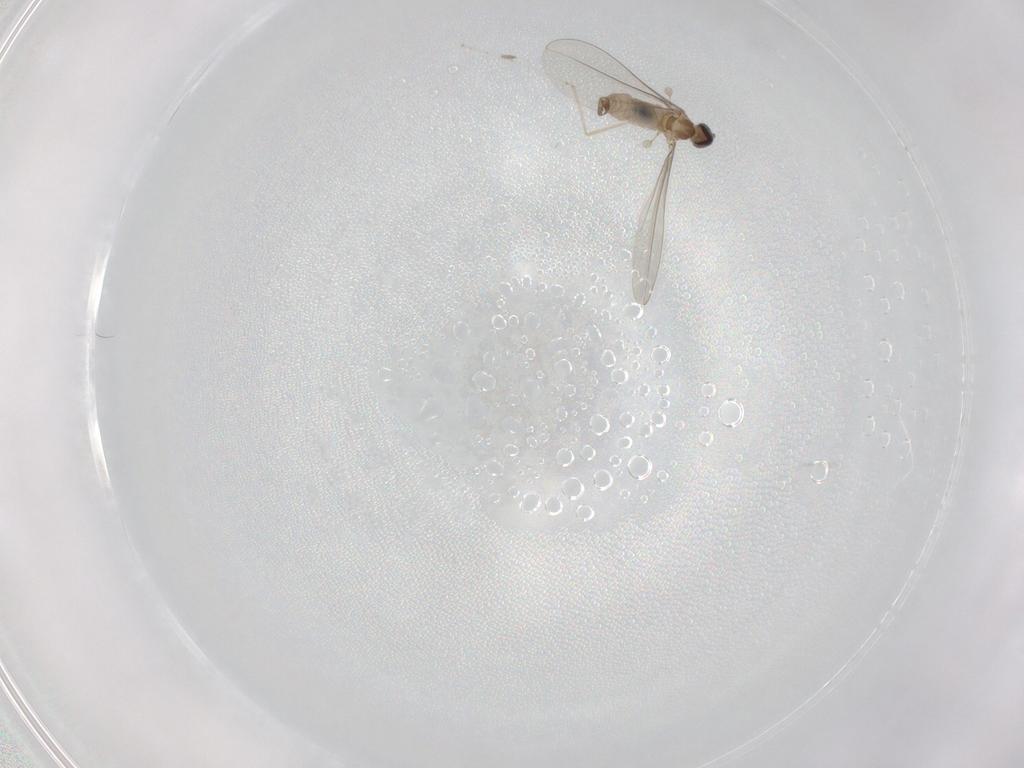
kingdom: Animalia
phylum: Arthropoda
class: Insecta
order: Diptera
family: Cecidomyiidae
